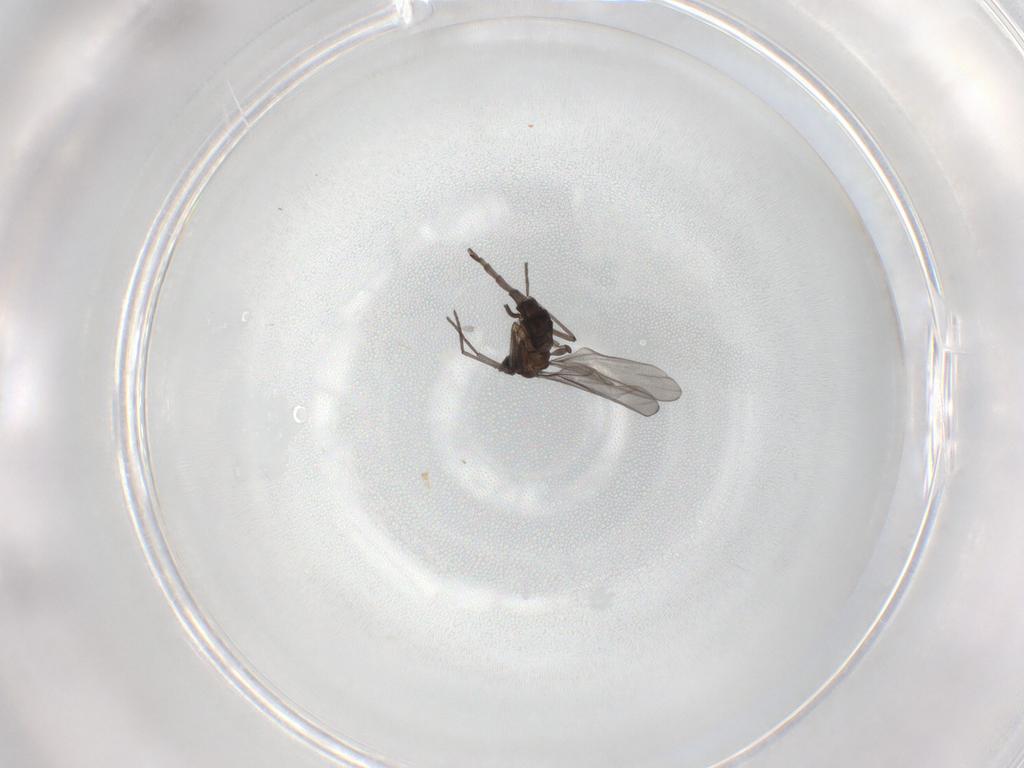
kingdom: Animalia
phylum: Arthropoda
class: Insecta
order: Diptera
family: Sciaridae
